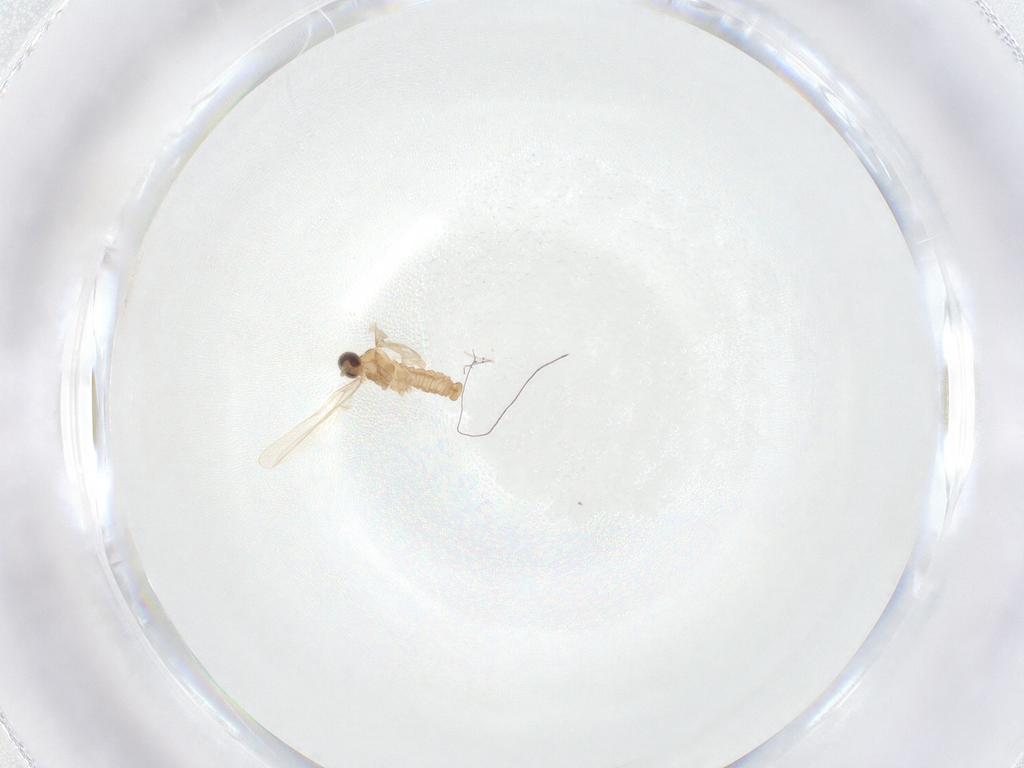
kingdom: Animalia
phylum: Arthropoda
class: Insecta
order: Diptera
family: Cecidomyiidae
